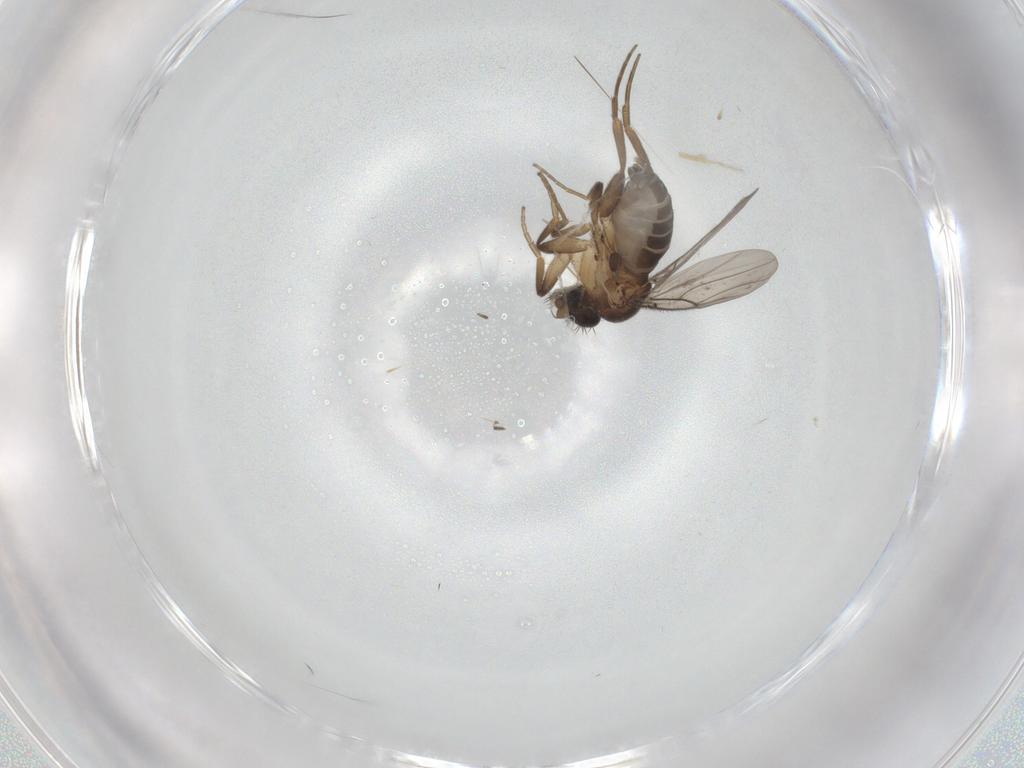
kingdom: Animalia
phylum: Arthropoda
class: Insecta
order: Diptera
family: Phoridae
